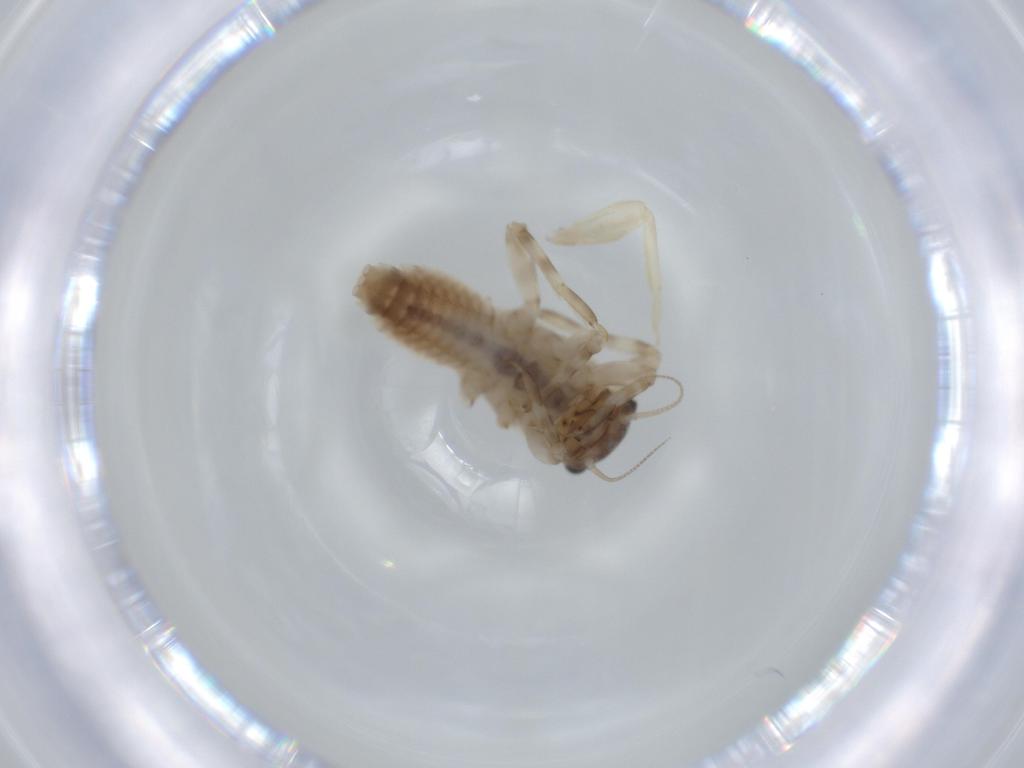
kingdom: Animalia
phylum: Arthropoda
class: Insecta
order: Ephemeroptera
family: Ephemerellidae
